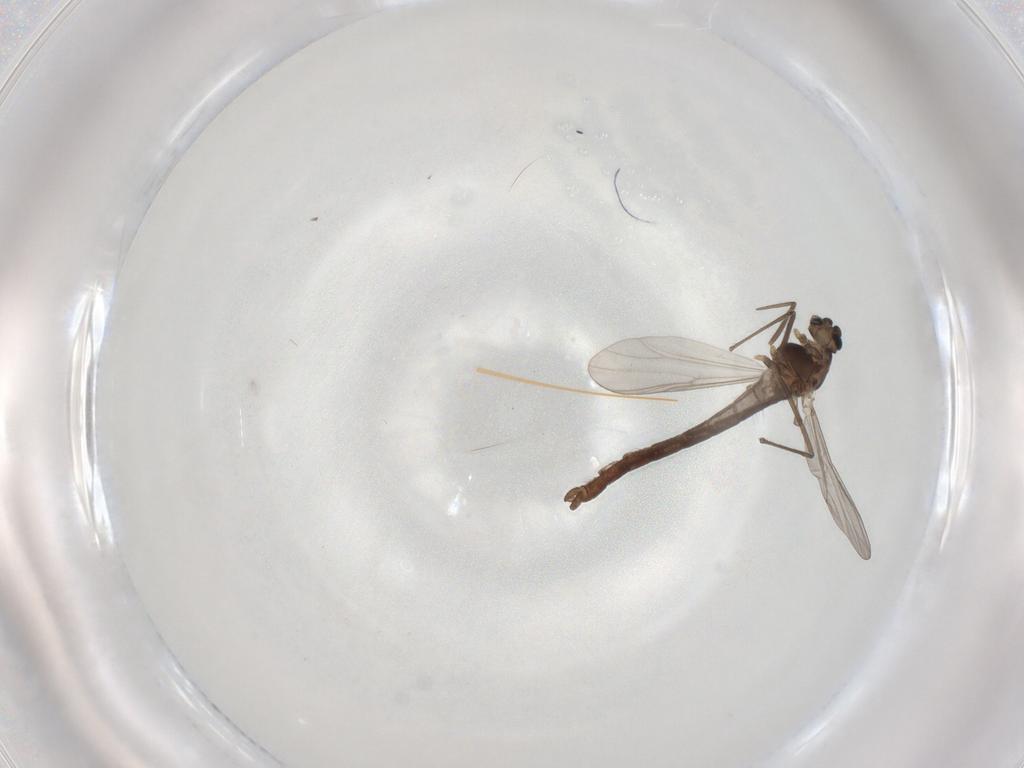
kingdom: Animalia
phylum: Arthropoda
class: Insecta
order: Diptera
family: Chironomidae
